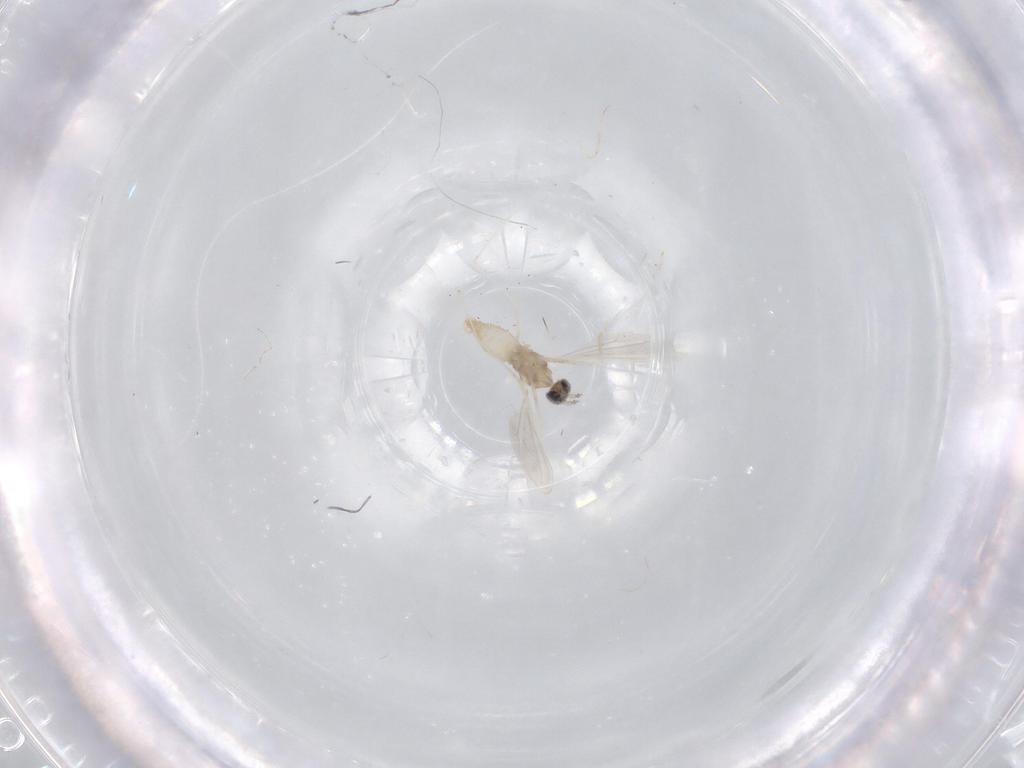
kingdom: Animalia
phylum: Arthropoda
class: Insecta
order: Diptera
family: Cecidomyiidae
